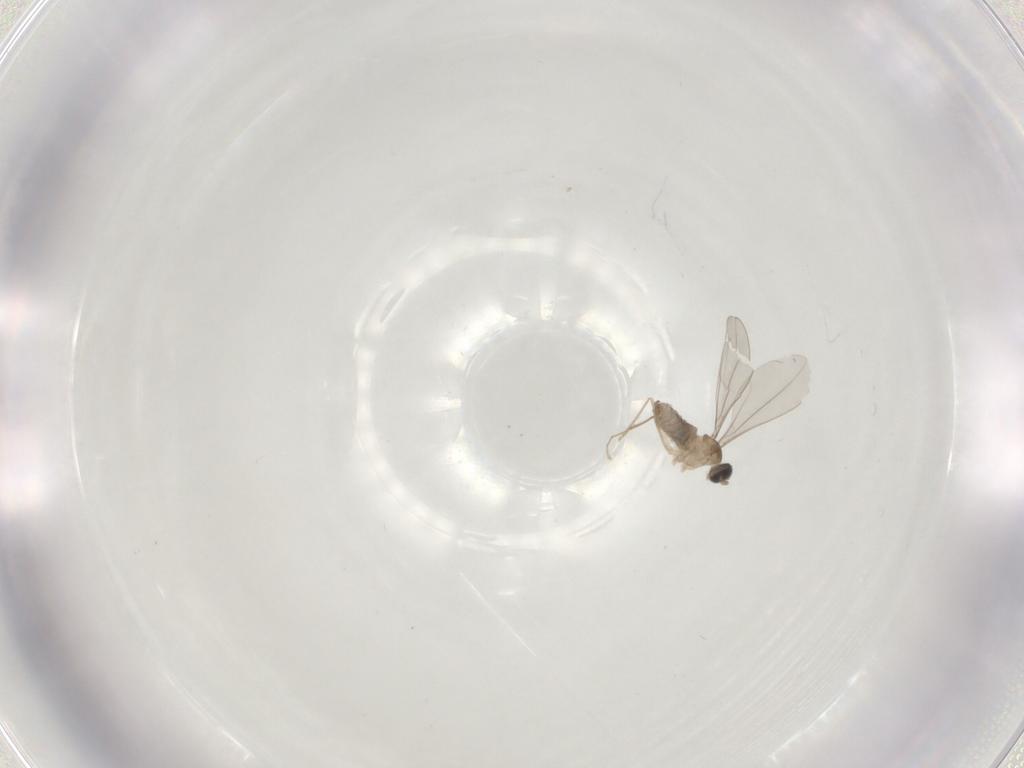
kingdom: Animalia
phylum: Arthropoda
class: Insecta
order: Diptera
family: Cecidomyiidae
